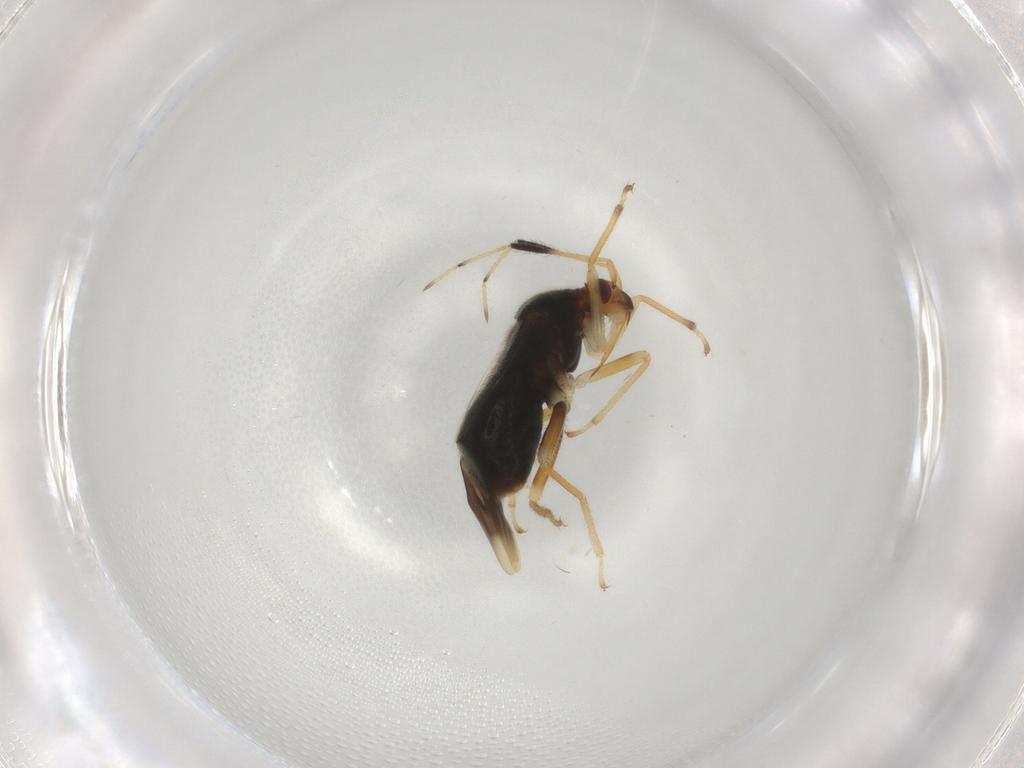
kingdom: Animalia
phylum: Arthropoda
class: Insecta
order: Hemiptera
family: Miridae
